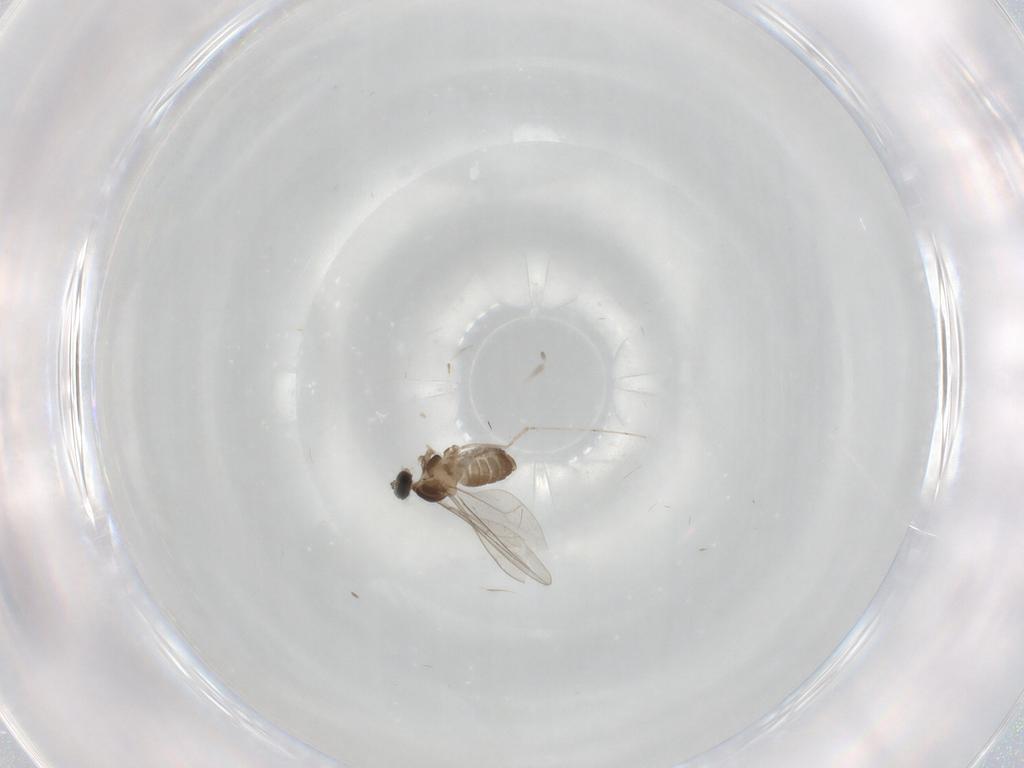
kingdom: Animalia
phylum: Arthropoda
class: Insecta
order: Diptera
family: Cecidomyiidae
